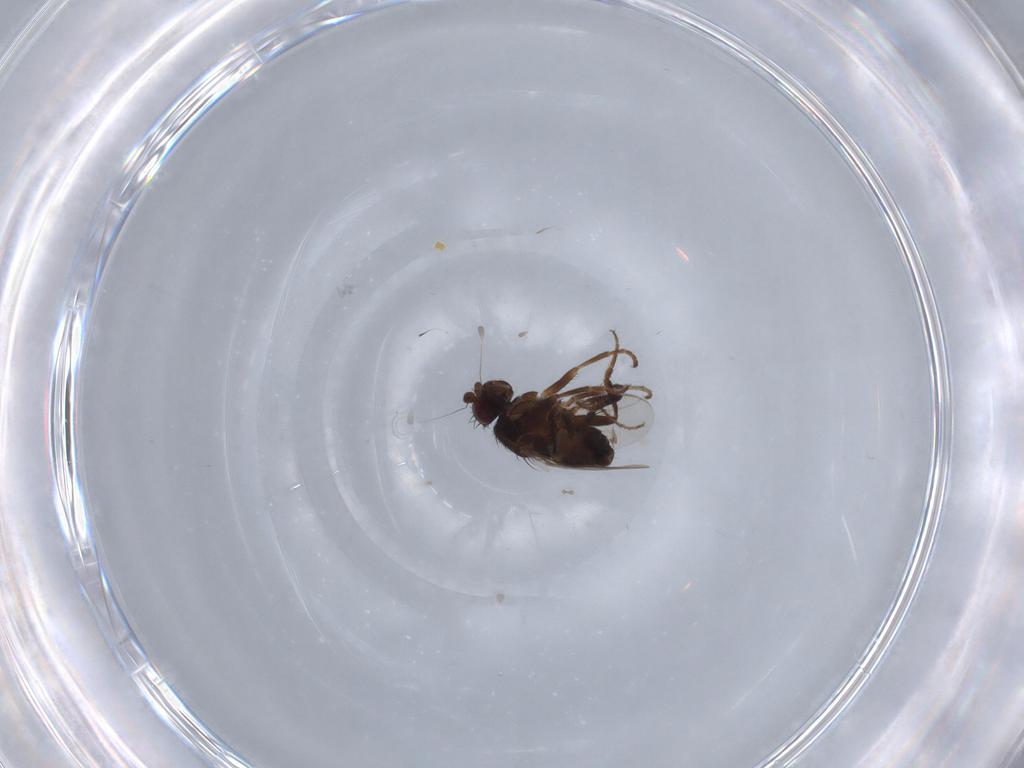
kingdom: Animalia
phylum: Arthropoda
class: Insecta
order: Diptera
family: Sphaeroceridae
